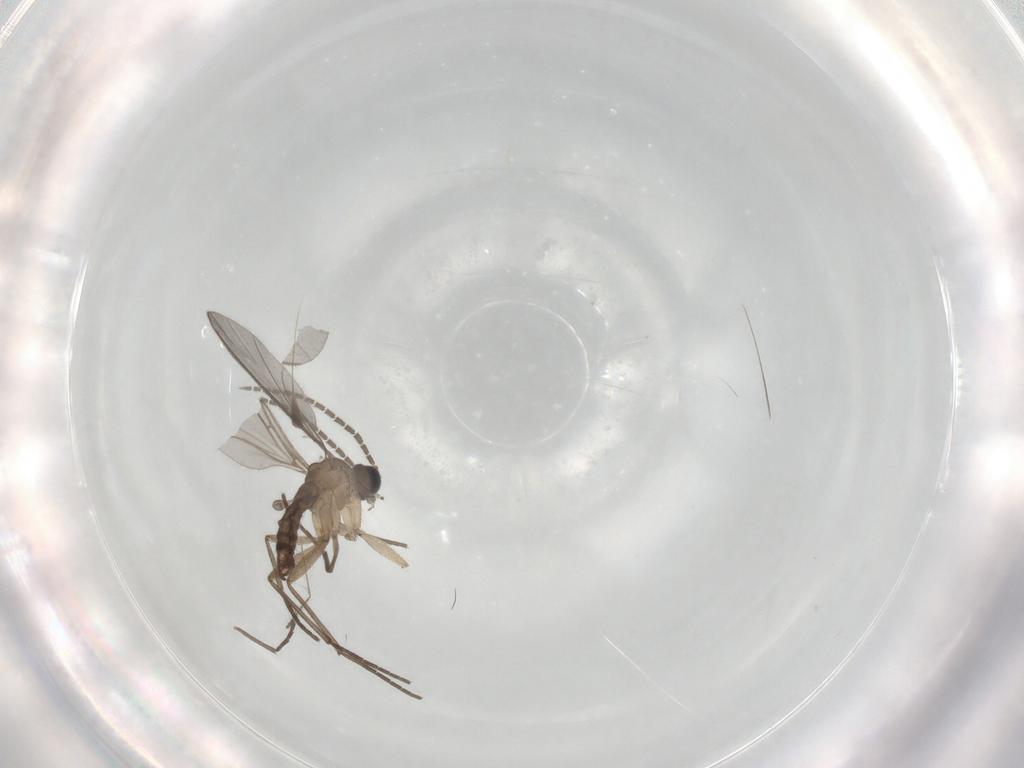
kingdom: Animalia
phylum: Arthropoda
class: Insecta
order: Diptera
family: Sciaridae
